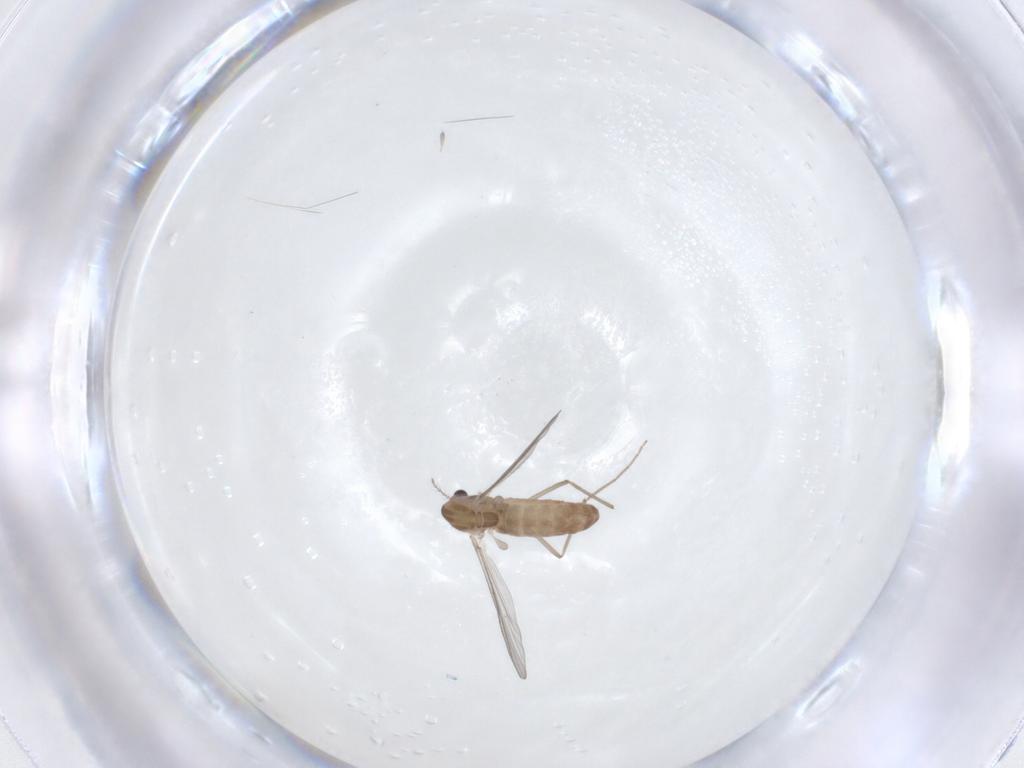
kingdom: Animalia
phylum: Arthropoda
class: Insecta
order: Diptera
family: Chironomidae
